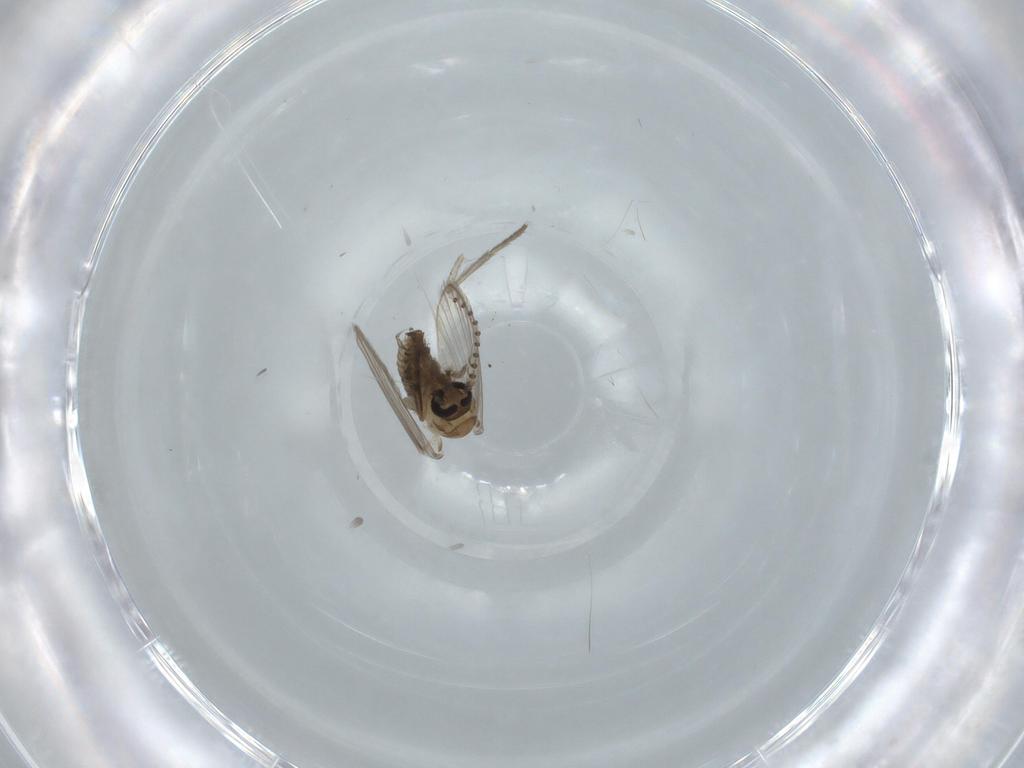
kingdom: Animalia
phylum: Arthropoda
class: Insecta
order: Diptera
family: Psychodidae
